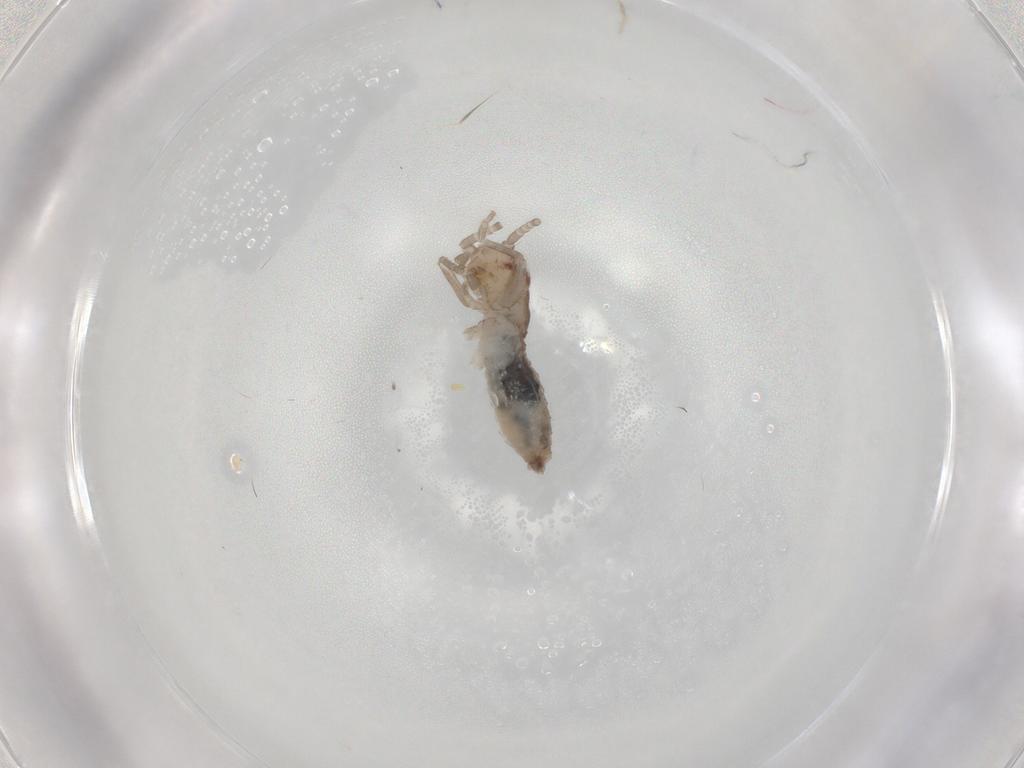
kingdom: Animalia
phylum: Arthropoda
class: Insecta
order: Orthoptera
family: Mogoplistidae
